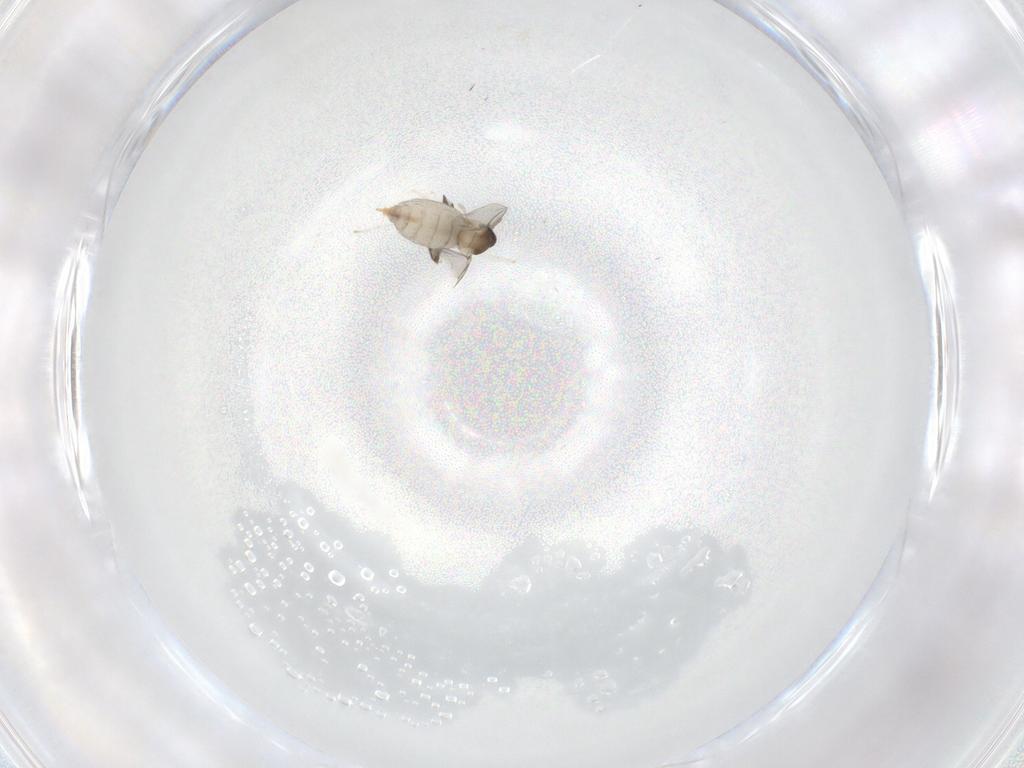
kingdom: Animalia
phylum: Arthropoda
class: Insecta
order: Diptera
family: Cecidomyiidae
